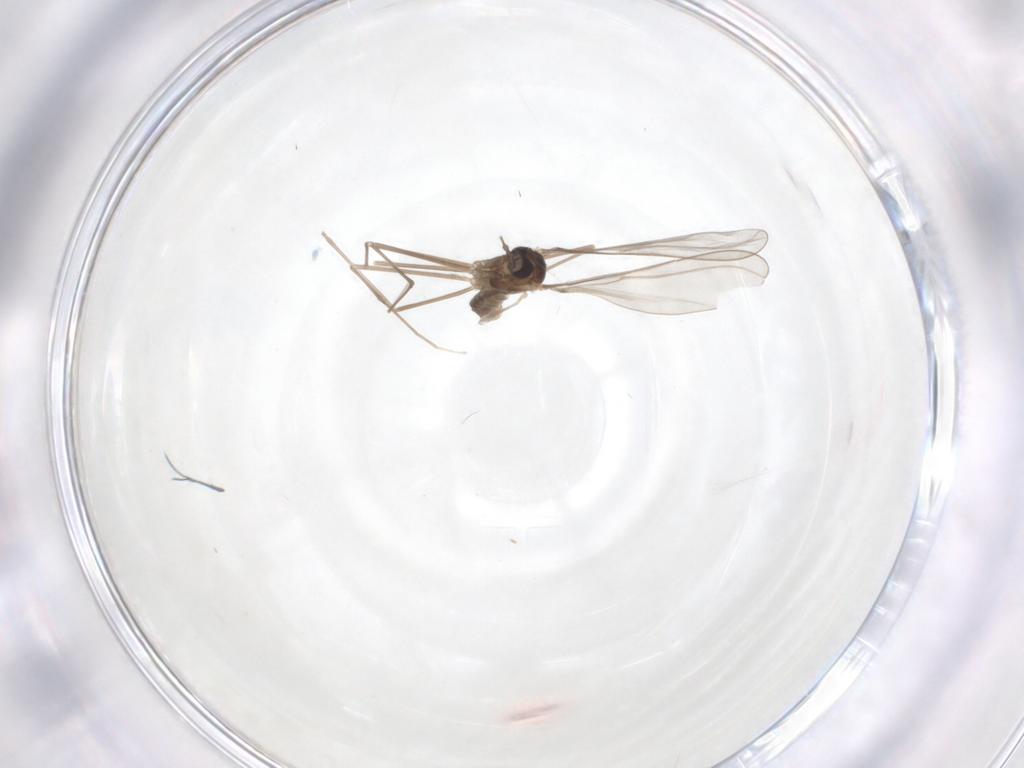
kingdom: Animalia
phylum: Arthropoda
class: Insecta
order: Diptera
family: Cecidomyiidae
